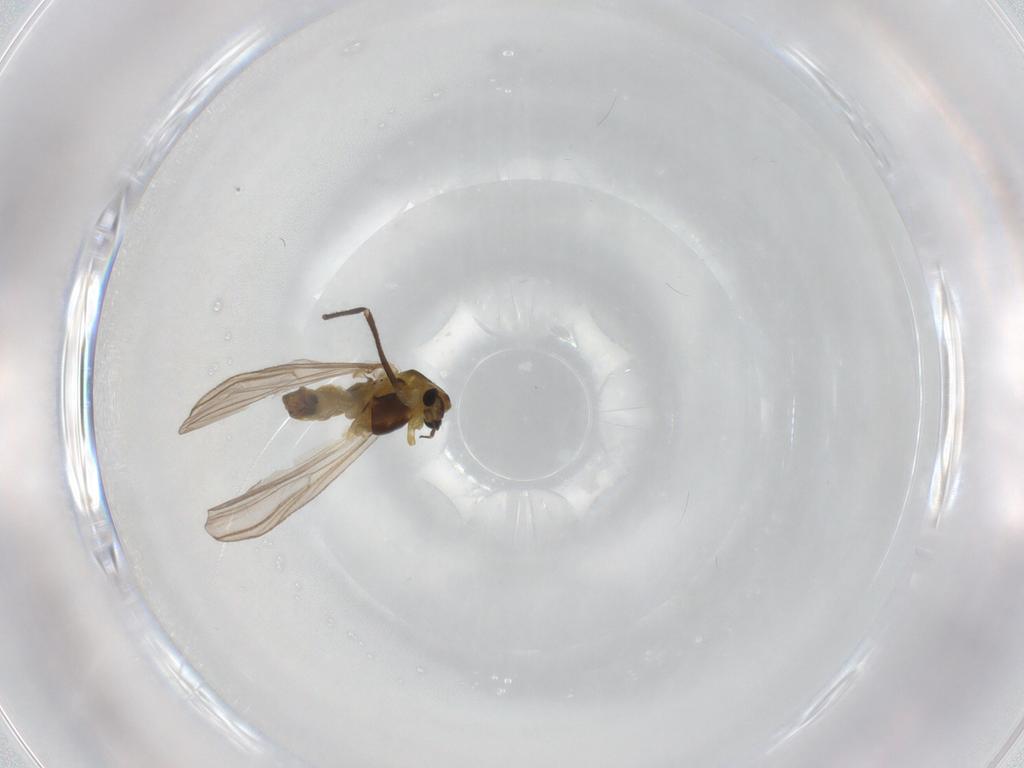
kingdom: Animalia
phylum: Arthropoda
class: Insecta
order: Diptera
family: Chironomidae
